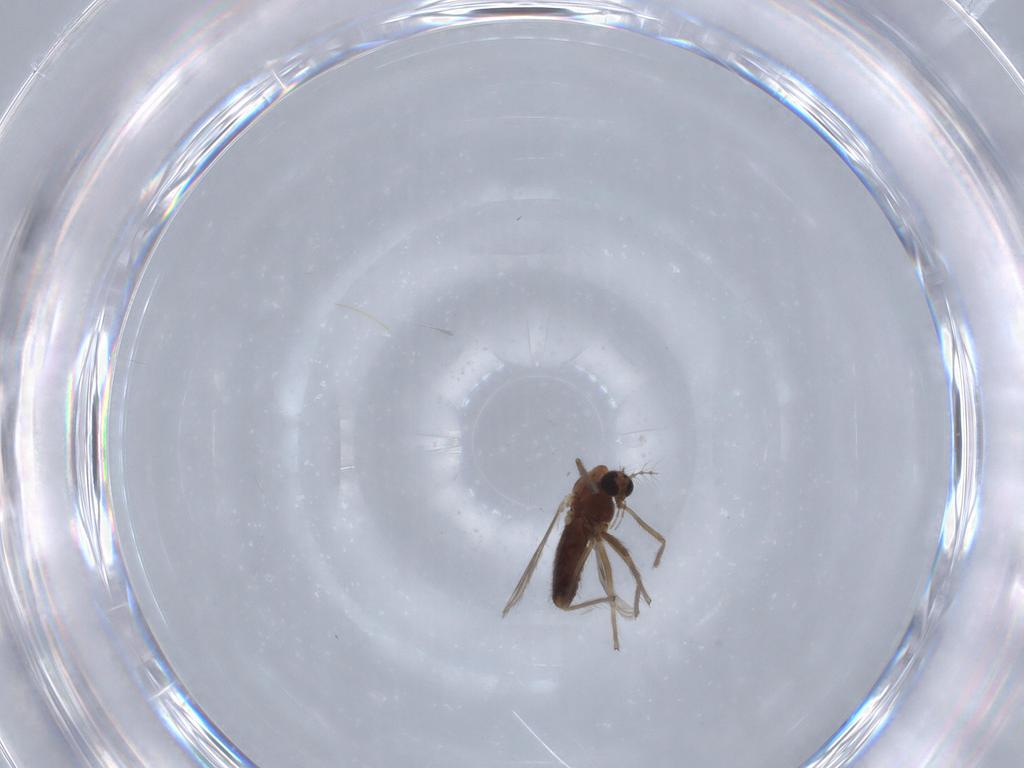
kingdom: Animalia
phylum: Arthropoda
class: Insecta
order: Diptera
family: Chironomidae
